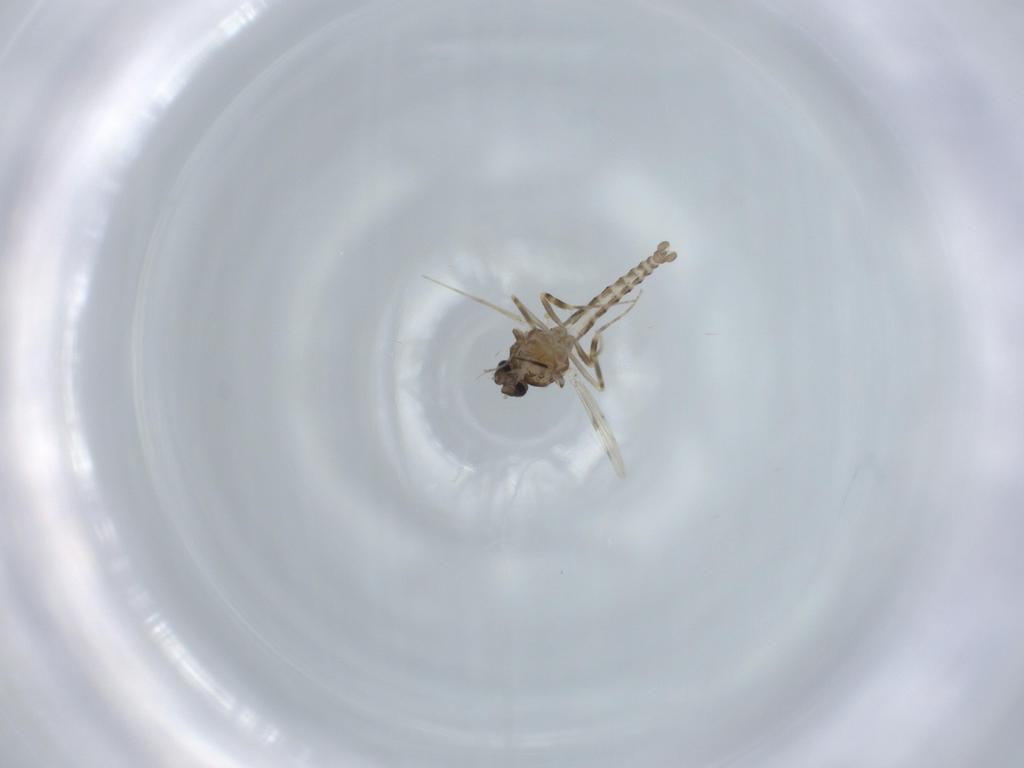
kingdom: Animalia
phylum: Arthropoda
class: Insecta
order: Diptera
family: Ceratopogonidae
